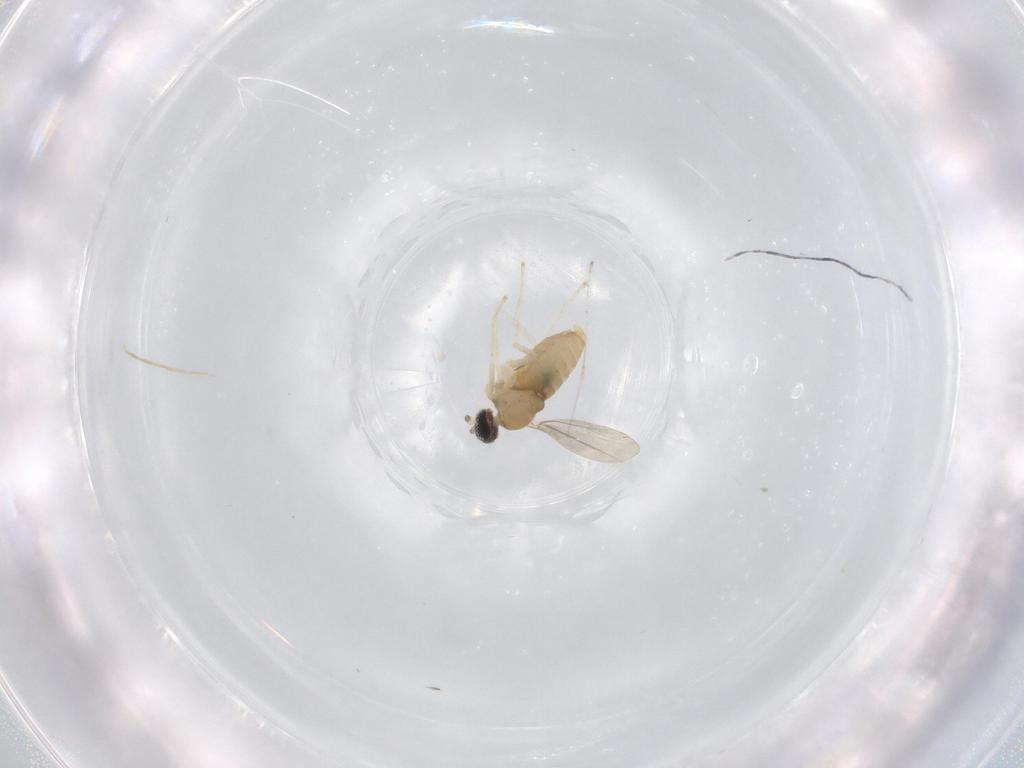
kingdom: Animalia
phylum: Arthropoda
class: Insecta
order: Diptera
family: Cecidomyiidae
